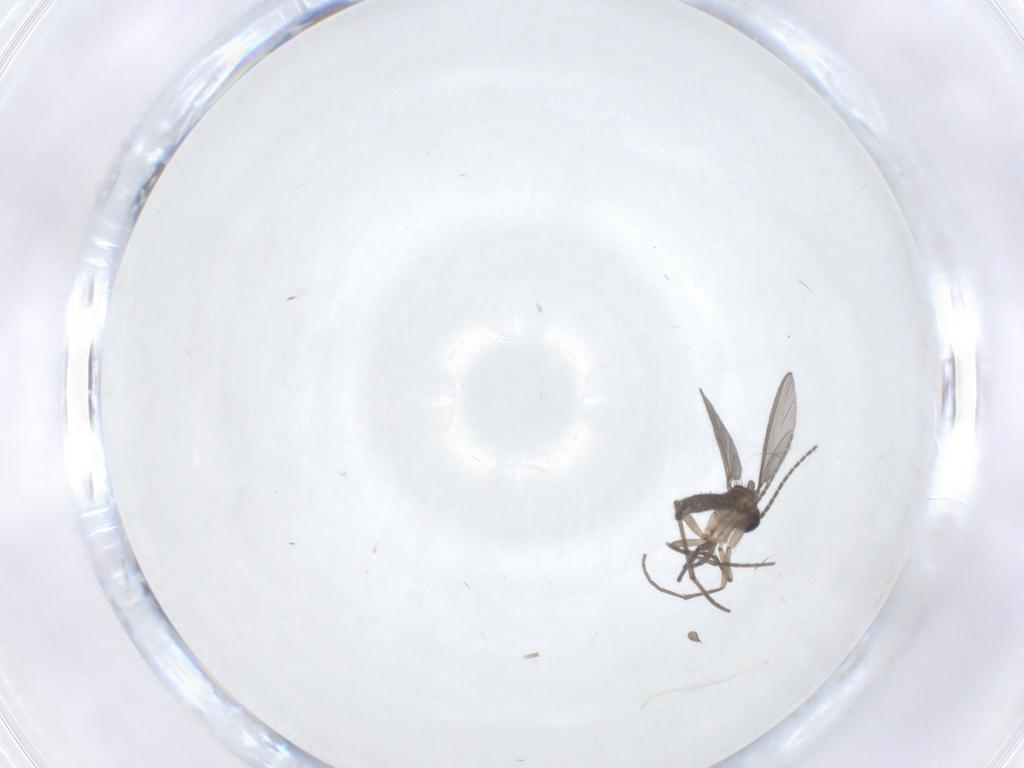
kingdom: Animalia
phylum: Arthropoda
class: Insecta
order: Diptera
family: Sciaridae
